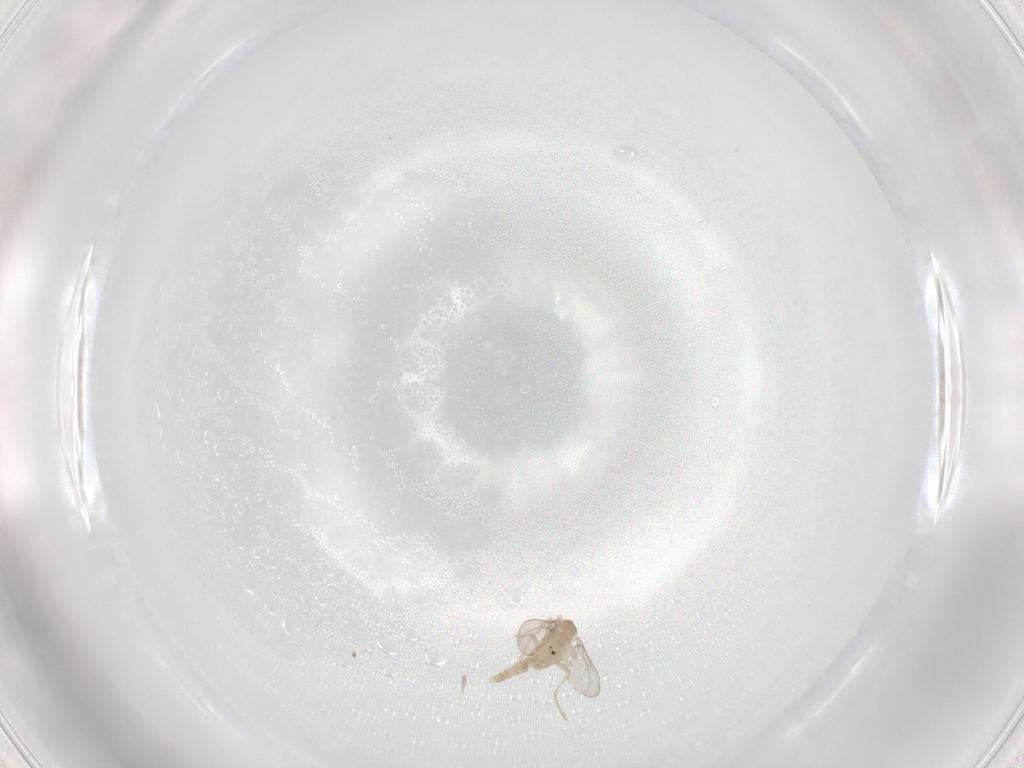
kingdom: Animalia
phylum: Arthropoda
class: Insecta
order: Diptera
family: Cecidomyiidae
